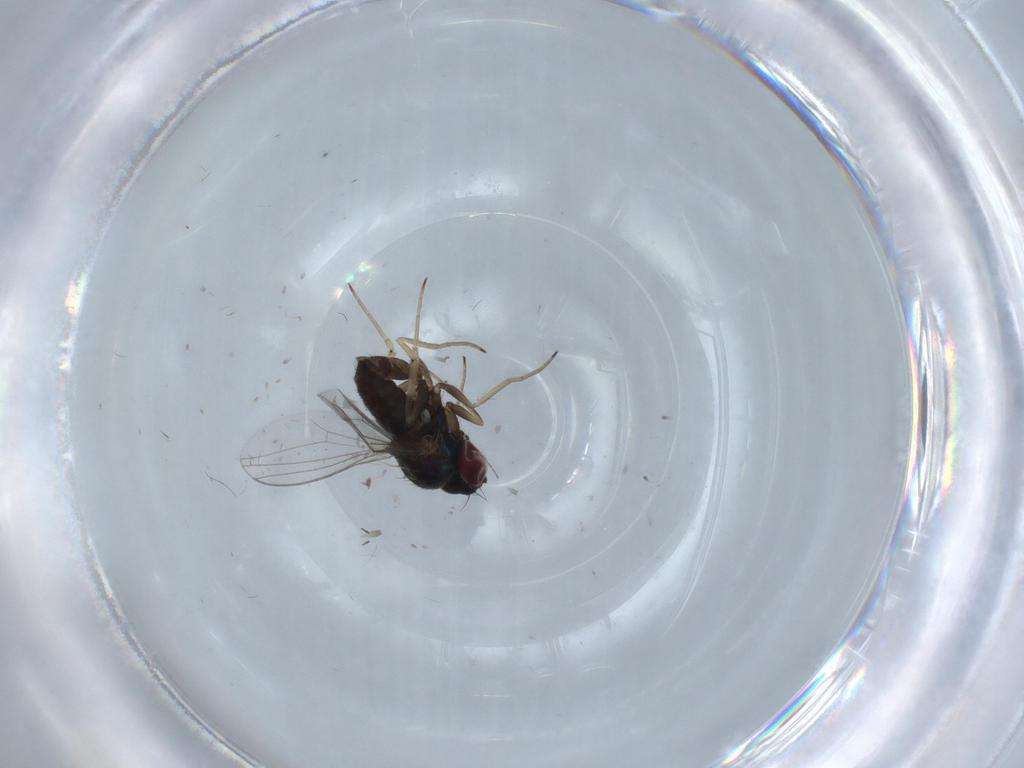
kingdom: Animalia
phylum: Arthropoda
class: Insecta
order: Diptera
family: Dolichopodidae
